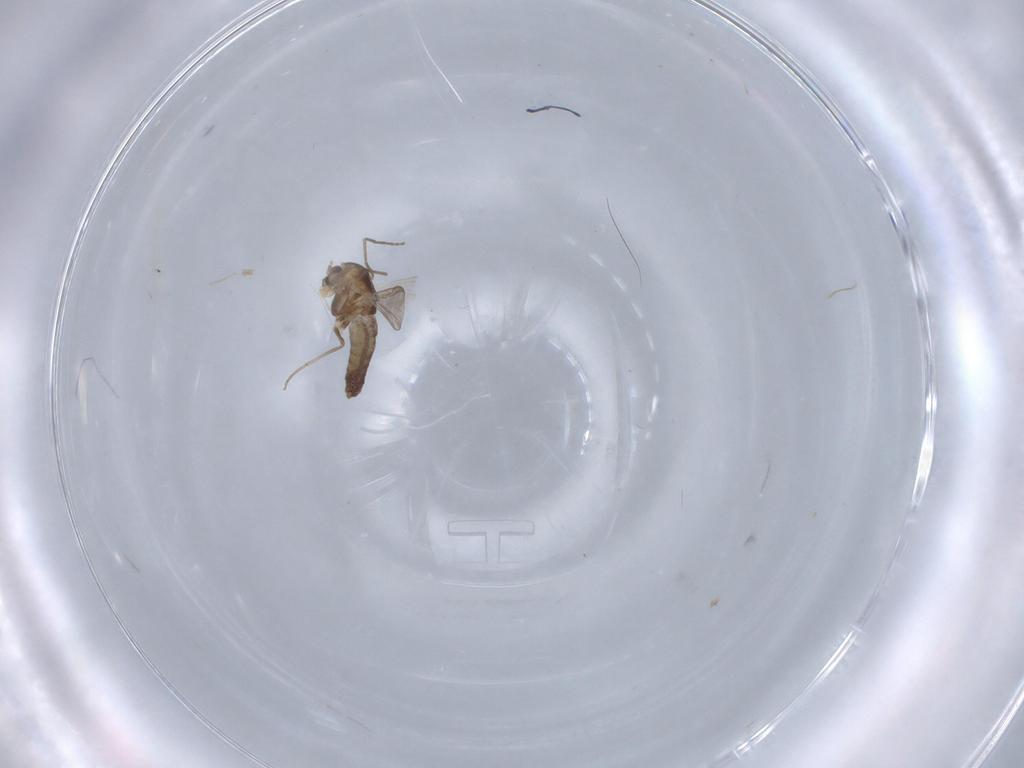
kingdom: Animalia
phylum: Arthropoda
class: Insecta
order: Diptera
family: Chironomidae
